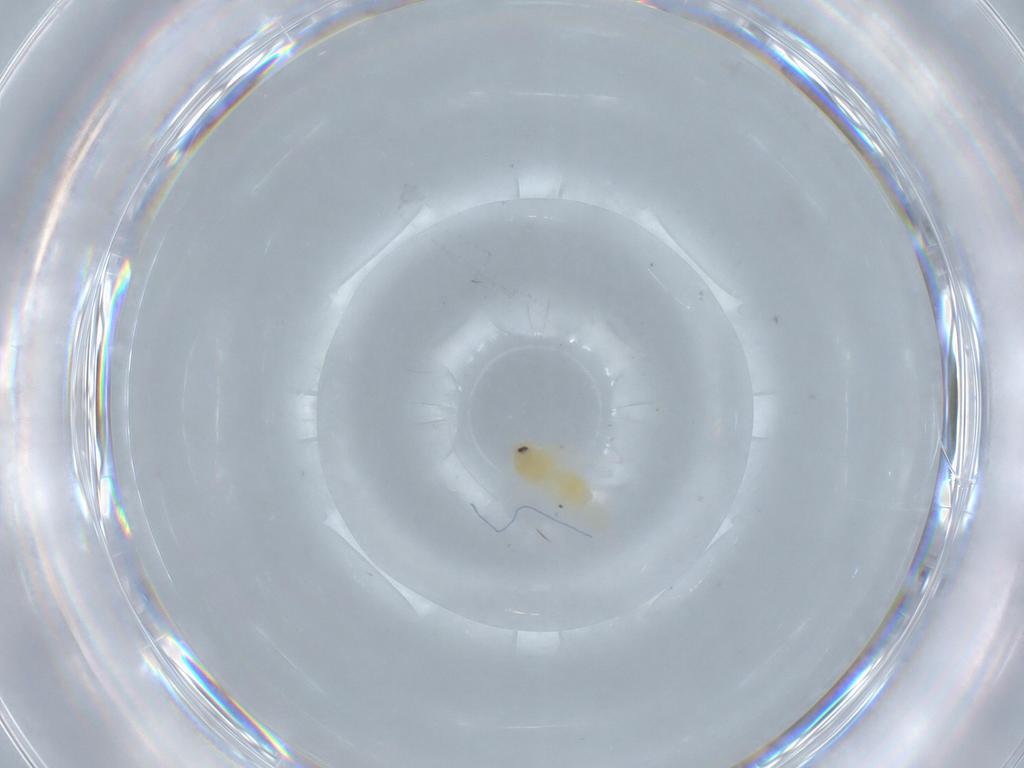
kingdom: Animalia
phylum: Arthropoda
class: Insecta
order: Hemiptera
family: Aleyrodidae
